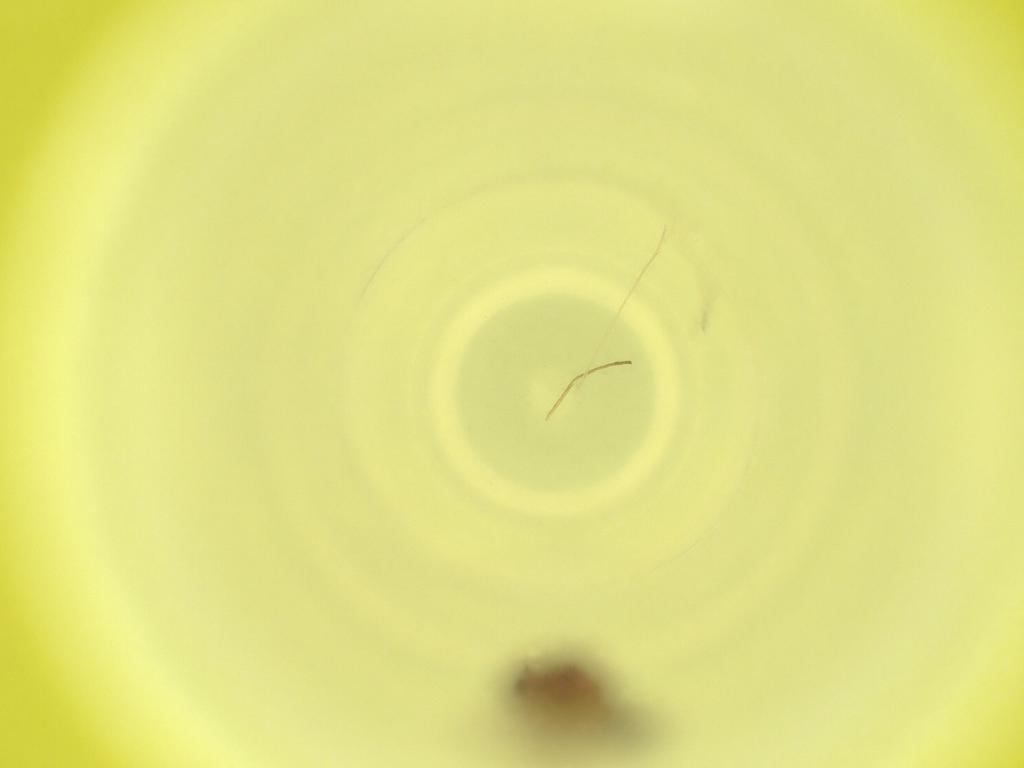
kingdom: Animalia
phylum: Arthropoda
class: Insecta
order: Diptera
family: Cecidomyiidae
